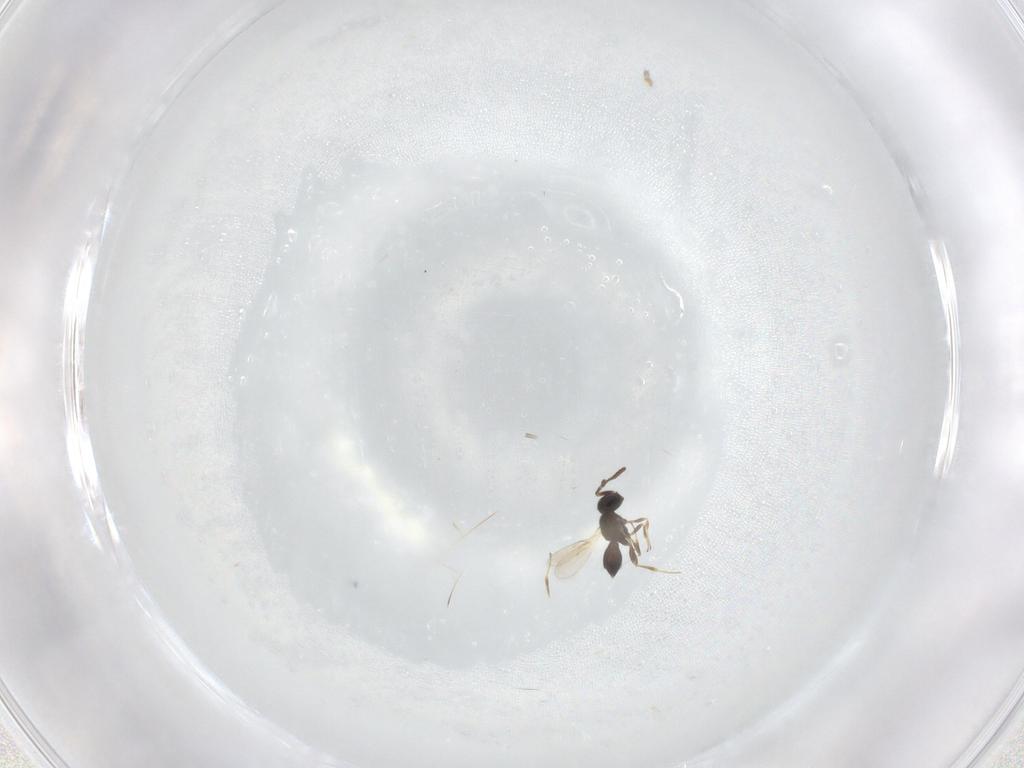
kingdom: Animalia
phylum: Arthropoda
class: Insecta
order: Hymenoptera
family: Scelionidae
